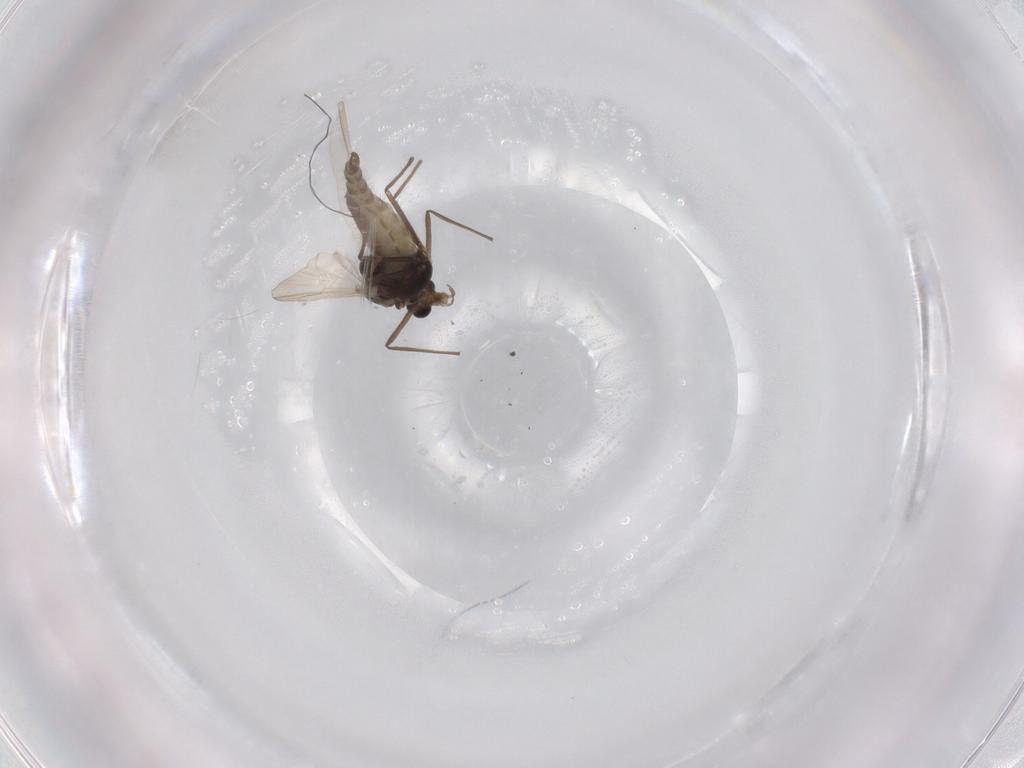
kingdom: Animalia
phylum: Arthropoda
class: Insecta
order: Diptera
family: Chironomidae
